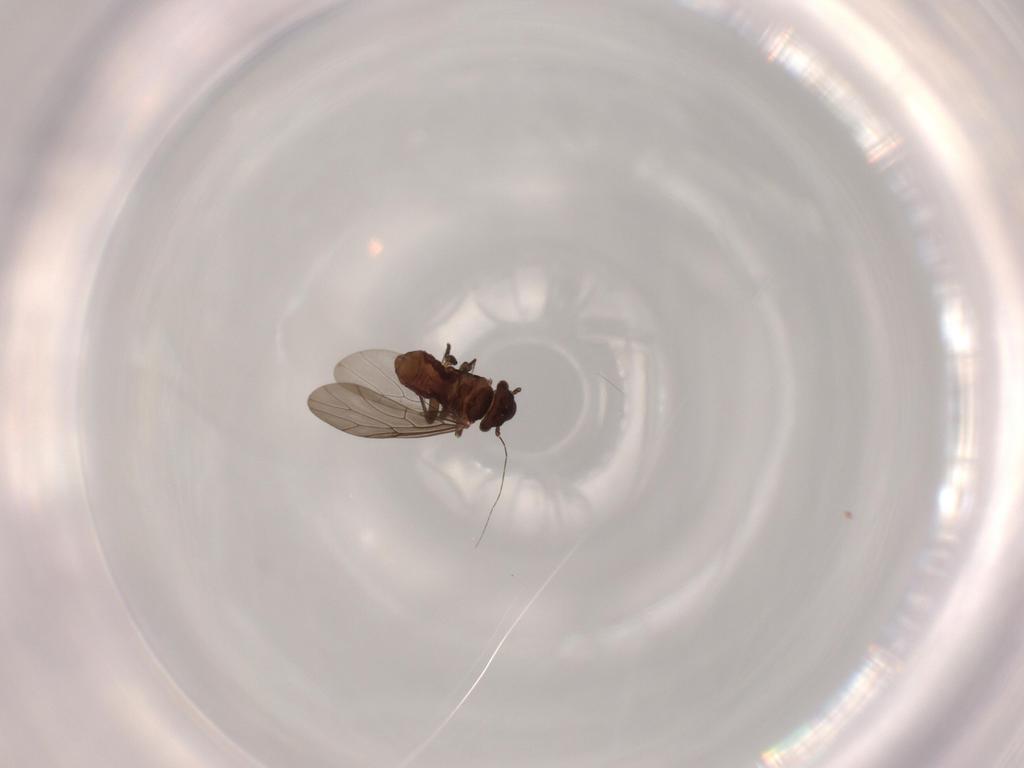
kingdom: Animalia
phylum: Arthropoda
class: Insecta
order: Psocodea
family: Lepidopsocidae
